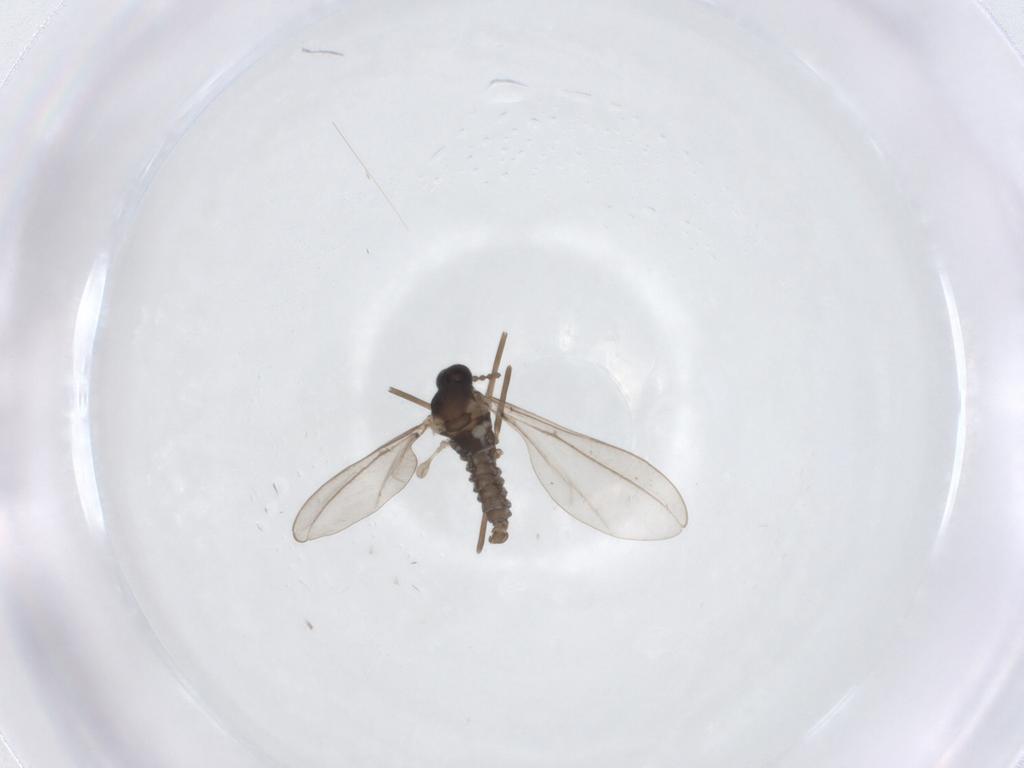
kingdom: Animalia
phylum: Arthropoda
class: Insecta
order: Diptera
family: Cecidomyiidae
